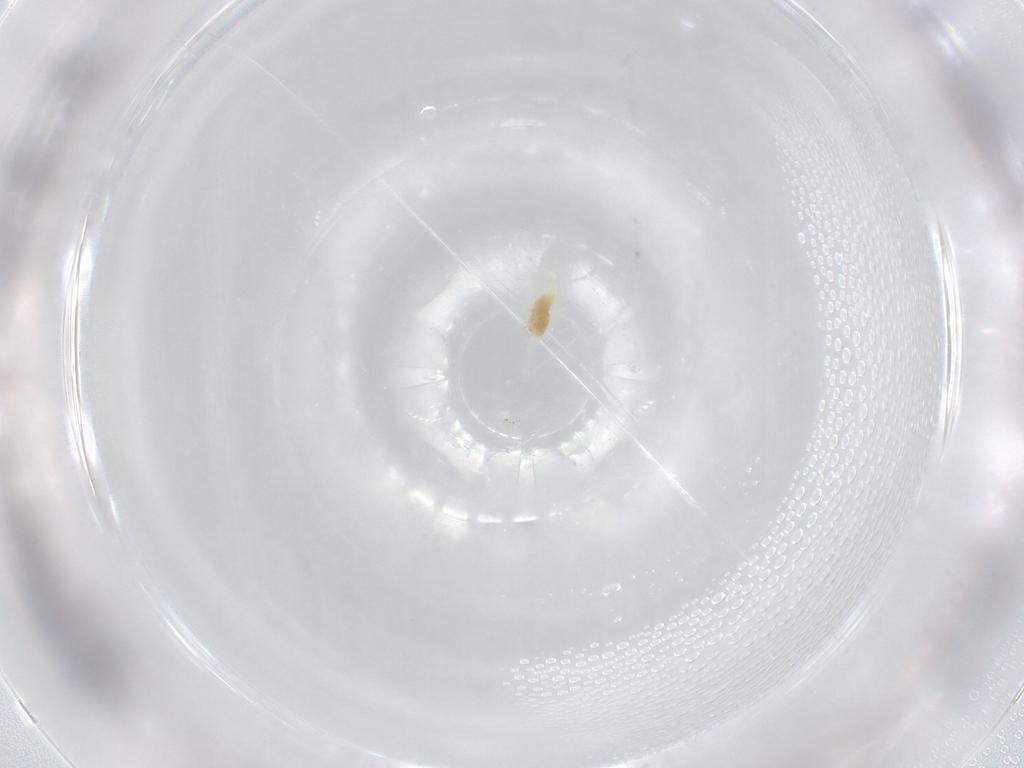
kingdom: Animalia
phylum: Arthropoda
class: Arachnida
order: Trombidiformes
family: Tetranychidae
